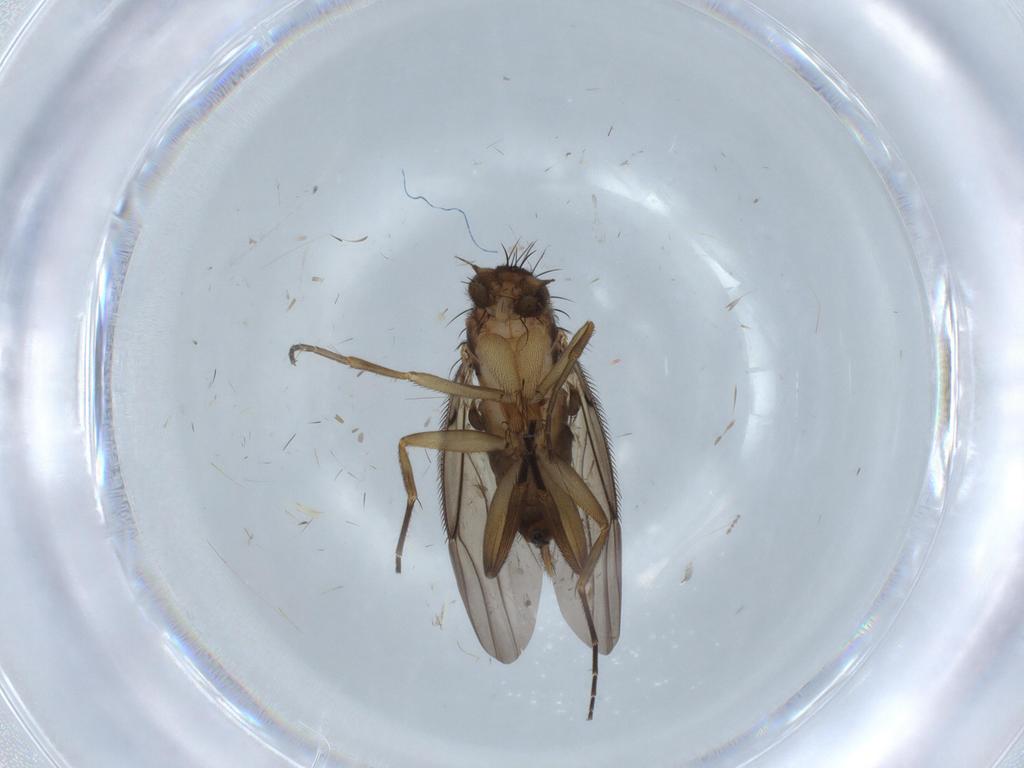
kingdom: Animalia
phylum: Arthropoda
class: Insecta
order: Diptera
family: Phoridae
